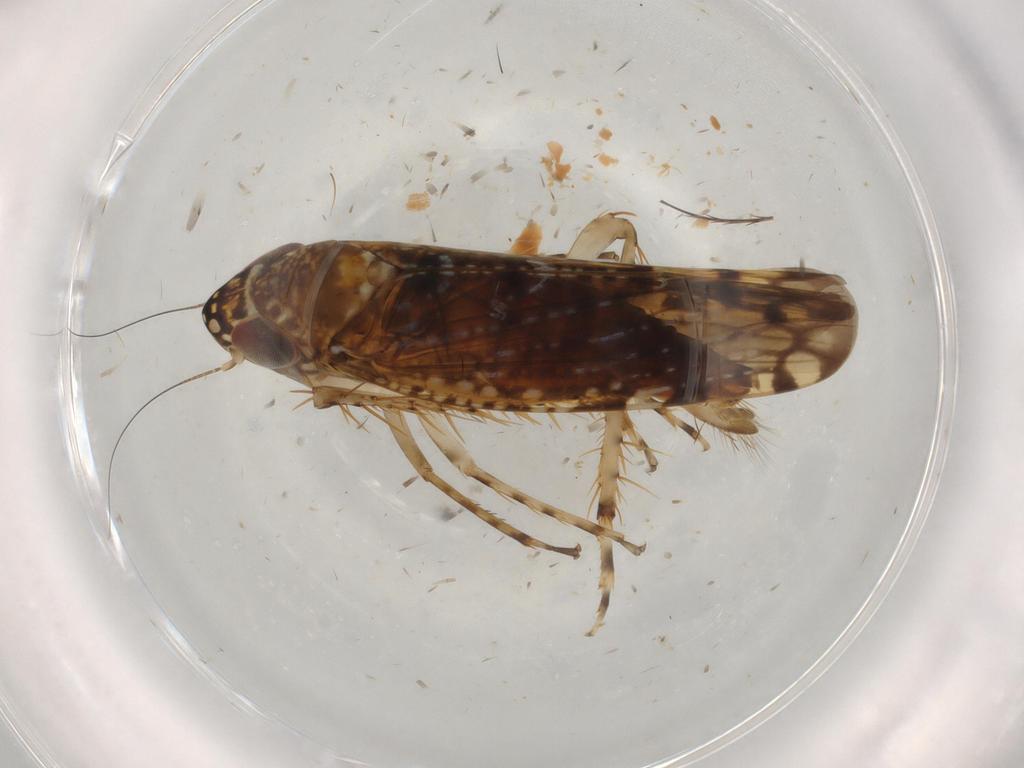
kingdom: Animalia
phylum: Arthropoda
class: Insecta
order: Hemiptera
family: Cicadellidae
